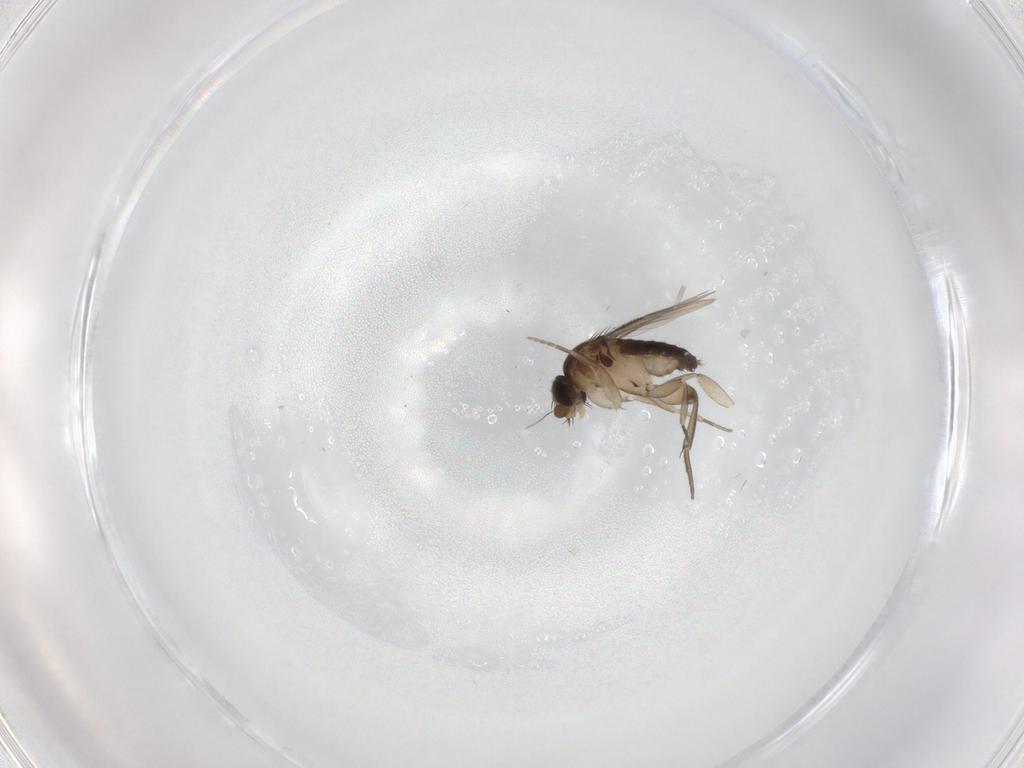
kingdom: Animalia
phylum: Arthropoda
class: Insecta
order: Diptera
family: Phoridae
